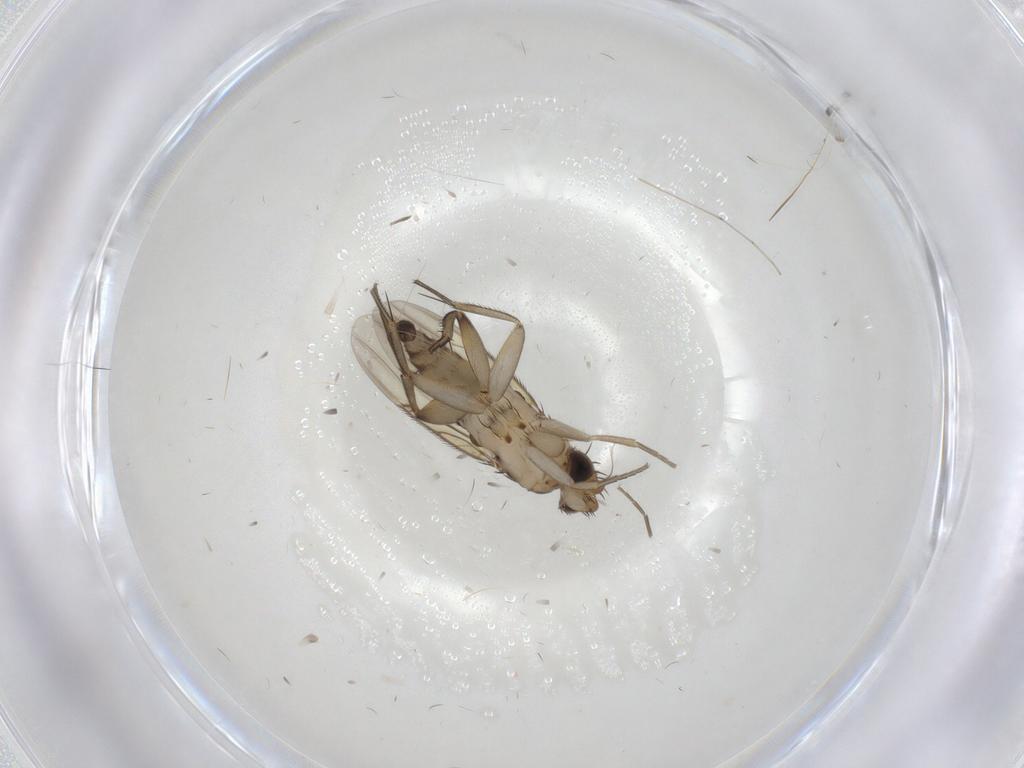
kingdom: Animalia
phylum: Arthropoda
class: Insecta
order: Diptera
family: Phoridae
